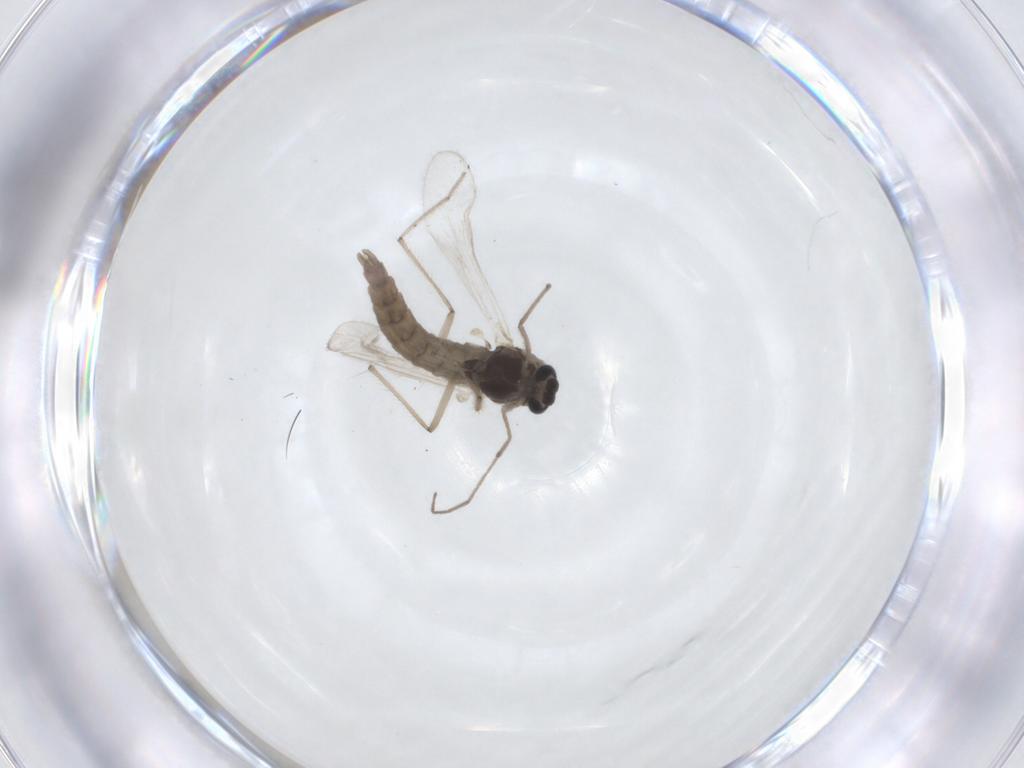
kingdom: Animalia
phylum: Arthropoda
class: Insecta
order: Diptera
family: Chironomidae
